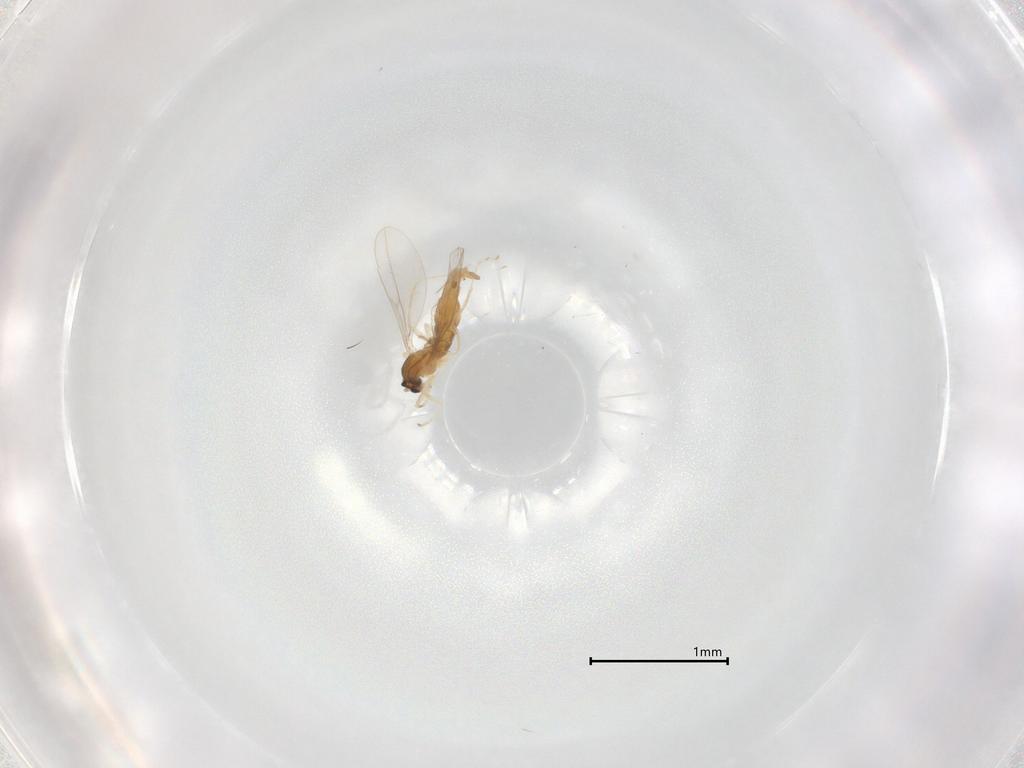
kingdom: Animalia
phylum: Arthropoda
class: Insecta
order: Diptera
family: Cecidomyiidae
